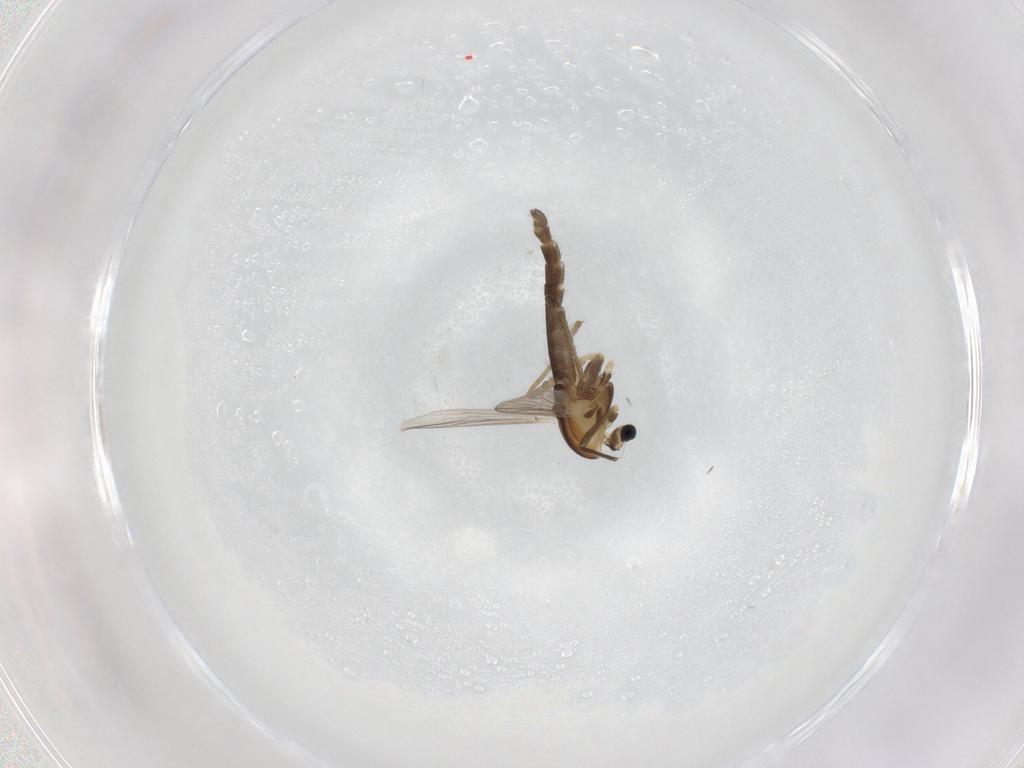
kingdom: Animalia
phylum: Arthropoda
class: Insecta
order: Diptera
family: Chironomidae
